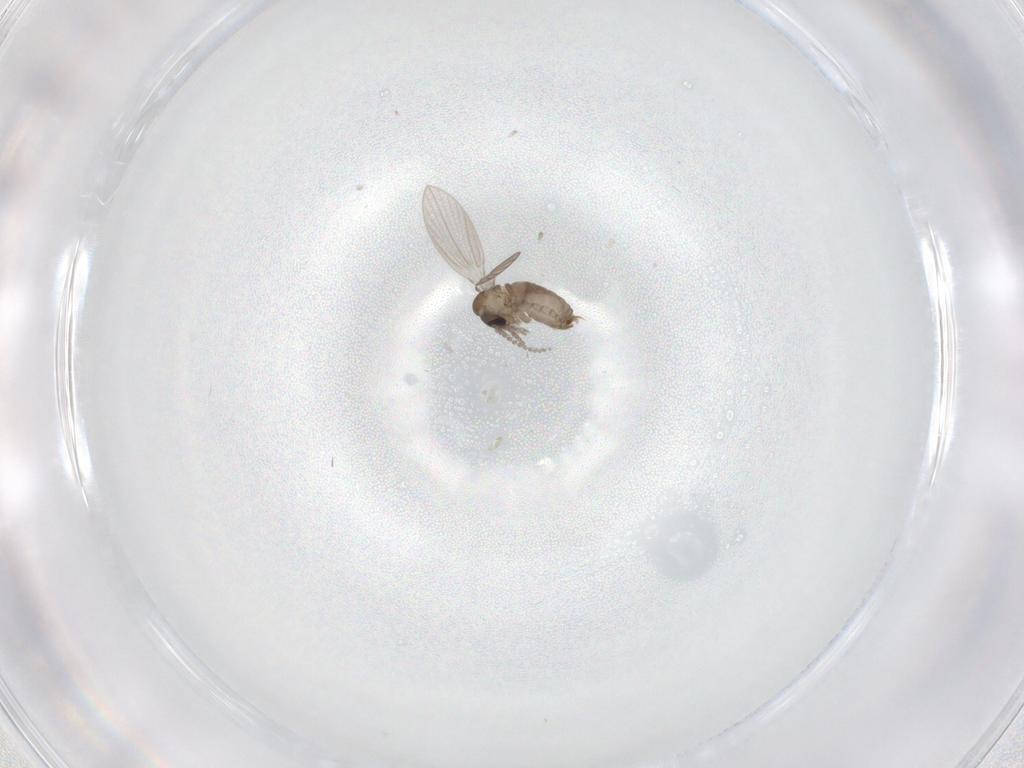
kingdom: Animalia
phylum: Arthropoda
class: Insecta
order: Diptera
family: Psychodidae
